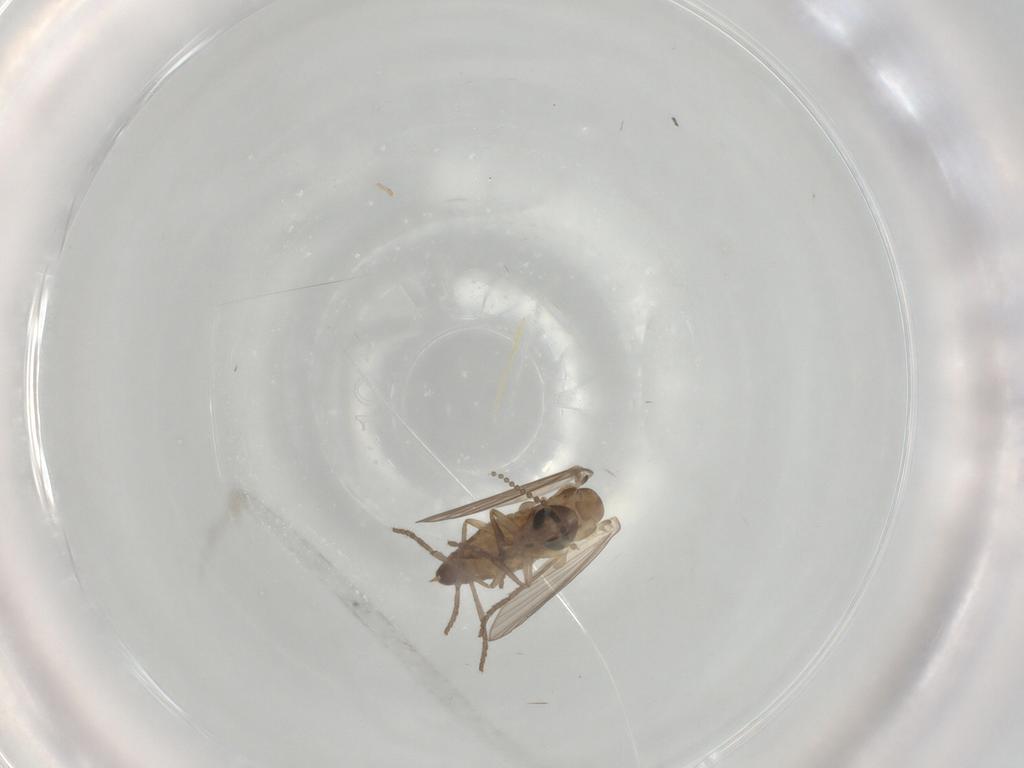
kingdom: Animalia
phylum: Arthropoda
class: Insecta
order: Diptera
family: Psychodidae
